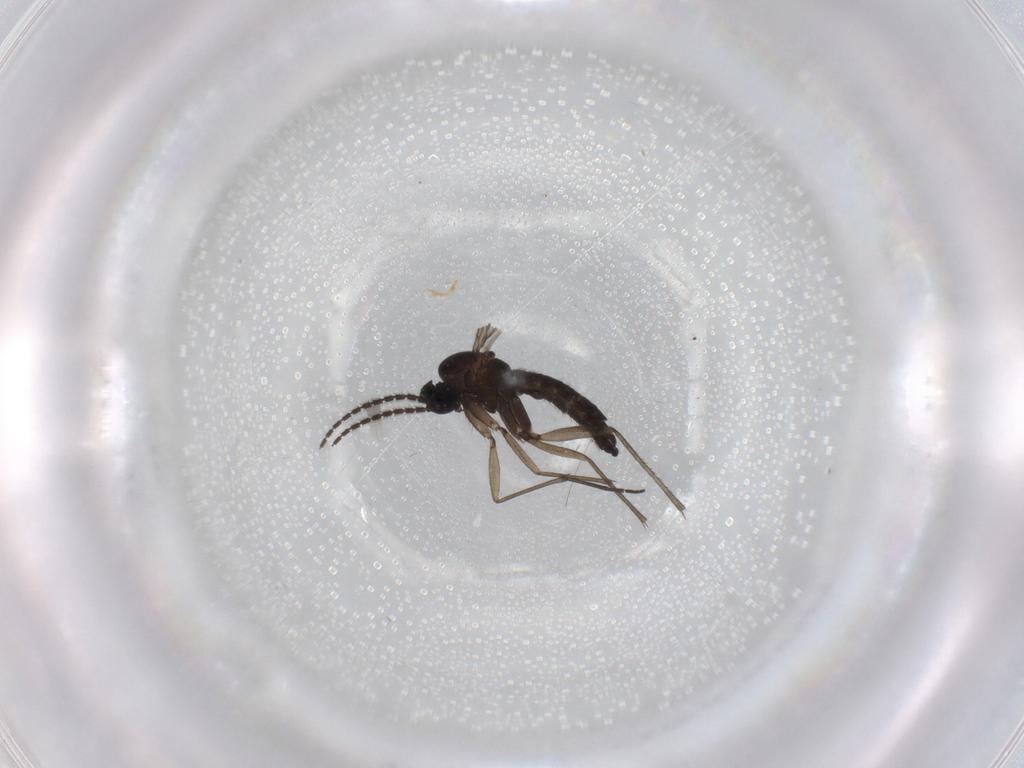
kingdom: Animalia
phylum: Arthropoda
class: Insecta
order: Diptera
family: Sciaridae
